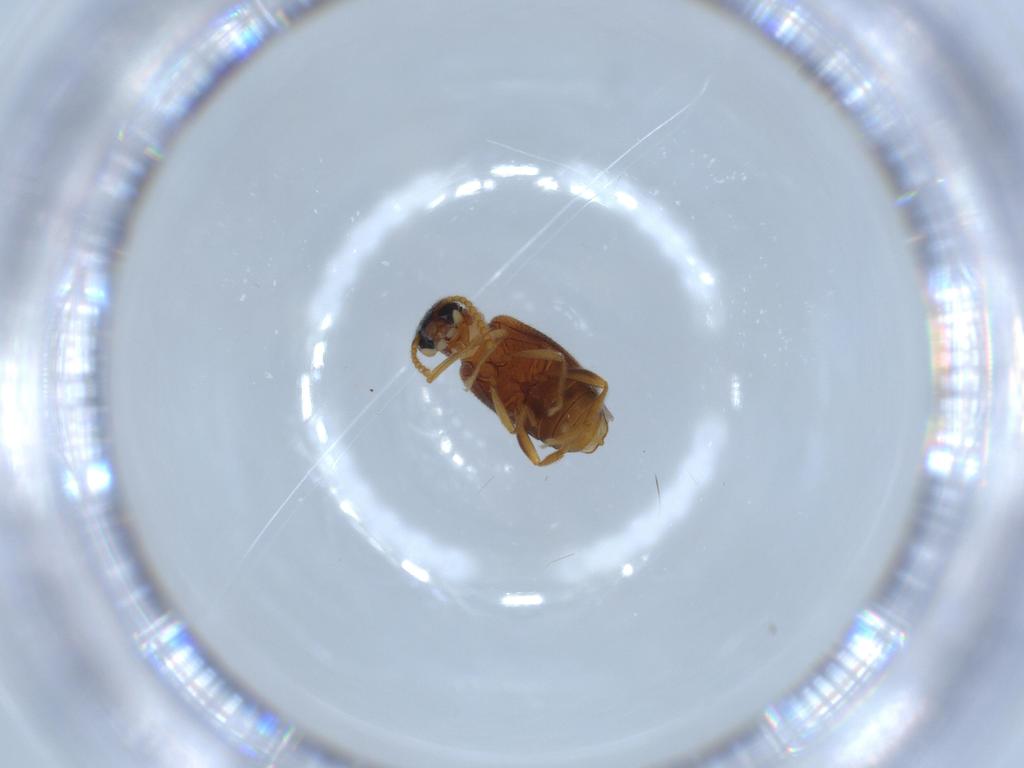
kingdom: Animalia
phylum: Arthropoda
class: Insecta
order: Coleoptera
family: Aderidae
